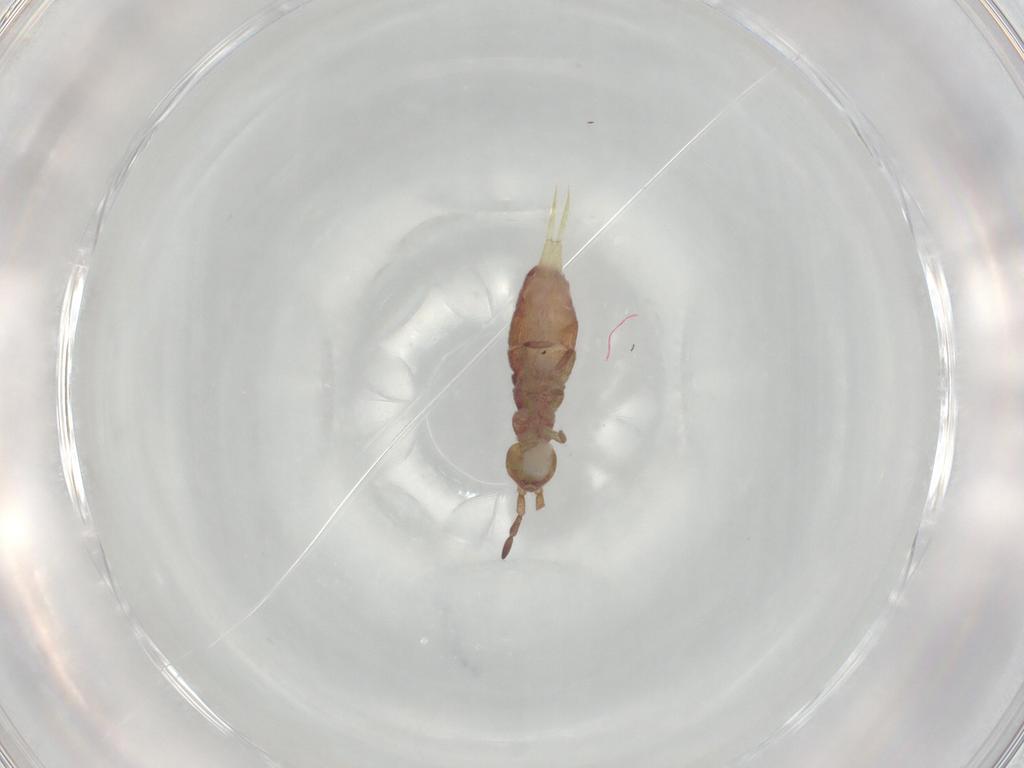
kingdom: Animalia
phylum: Arthropoda
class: Collembola
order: Entomobryomorpha
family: Isotomidae
